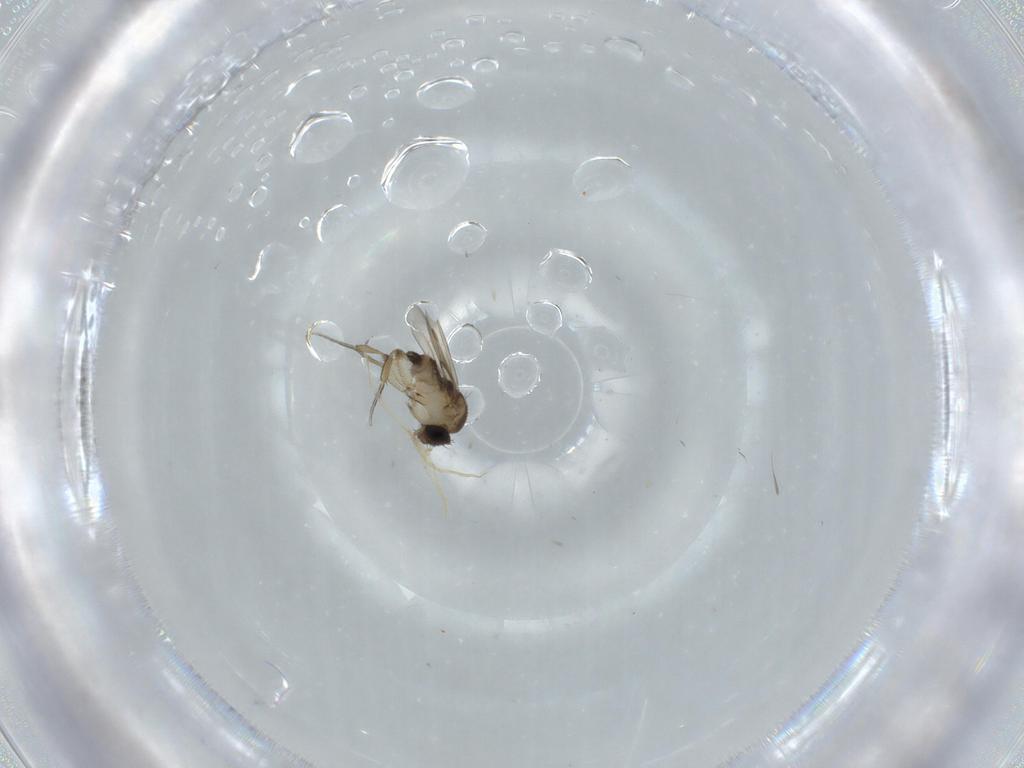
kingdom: Animalia
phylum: Arthropoda
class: Insecta
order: Diptera
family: Phoridae
